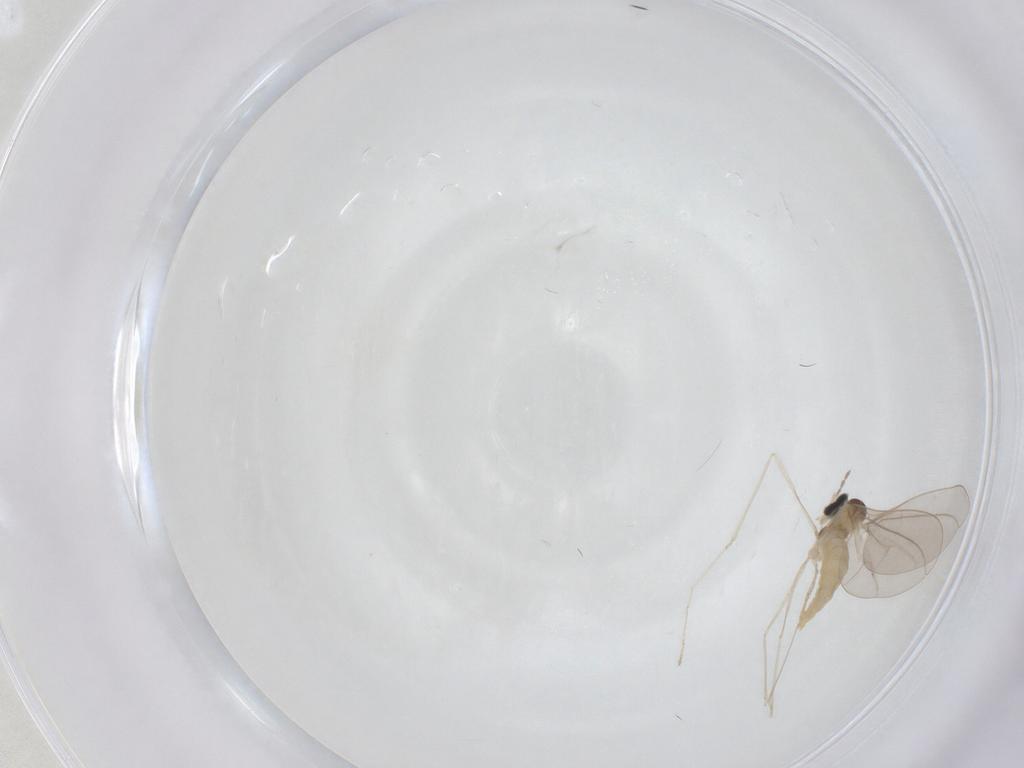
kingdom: Animalia
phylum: Arthropoda
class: Insecta
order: Diptera
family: Cecidomyiidae
